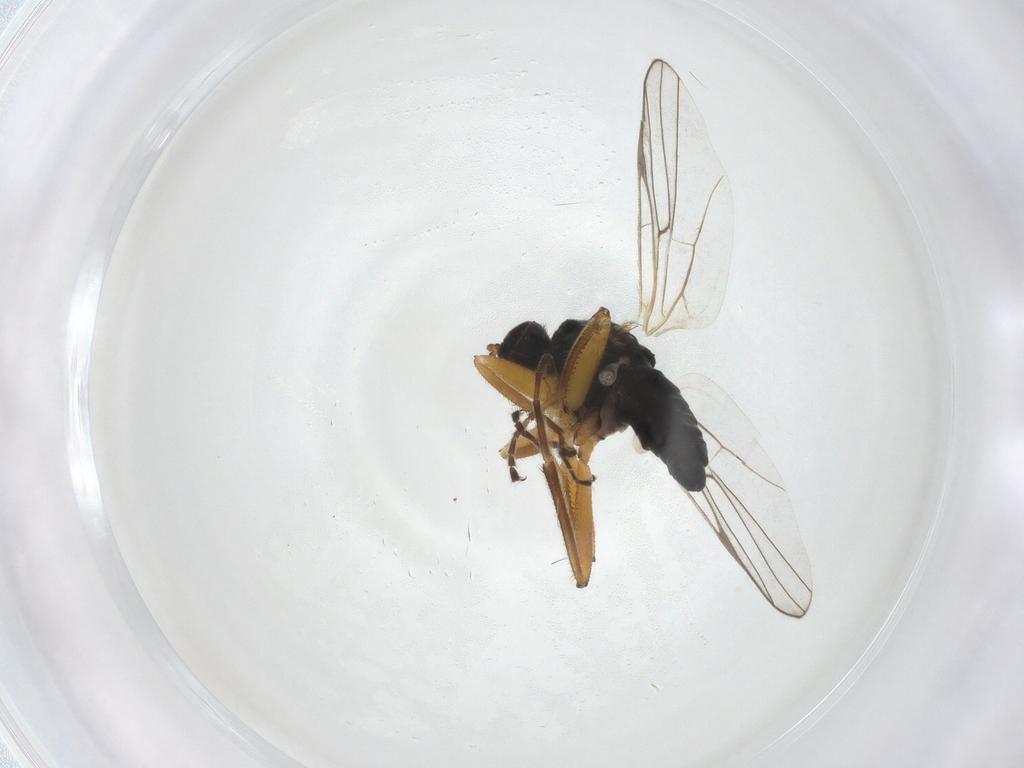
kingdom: Animalia
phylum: Arthropoda
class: Insecta
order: Diptera
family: Hybotidae
